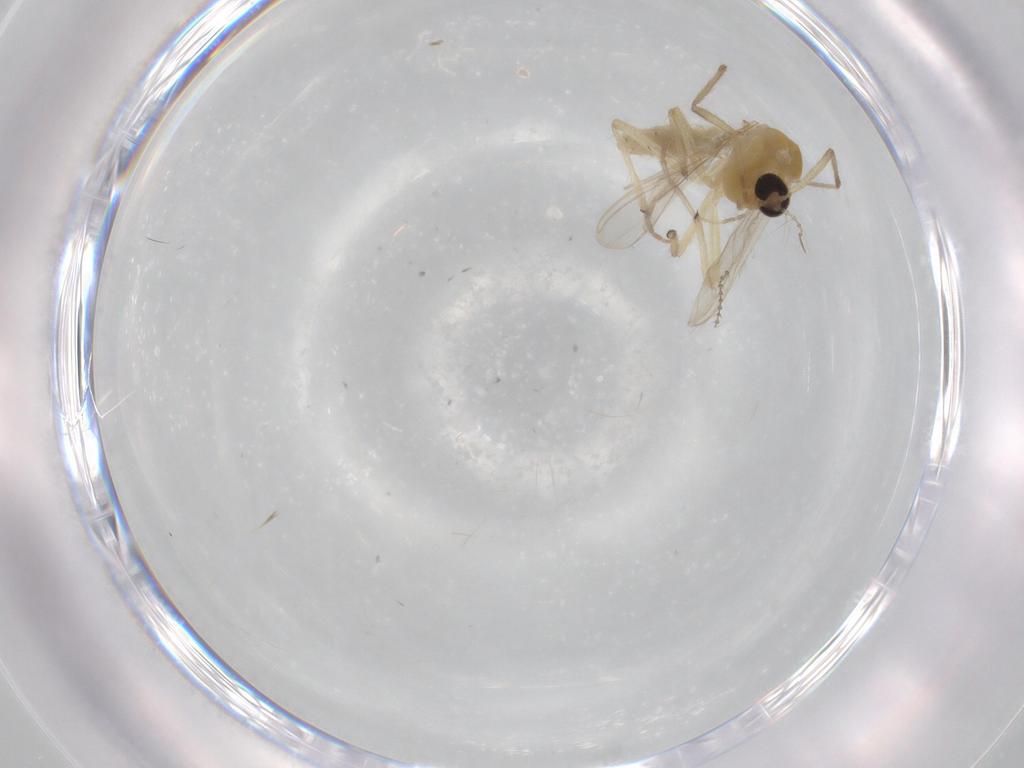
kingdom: Animalia
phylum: Arthropoda
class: Insecta
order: Diptera
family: Chironomidae
